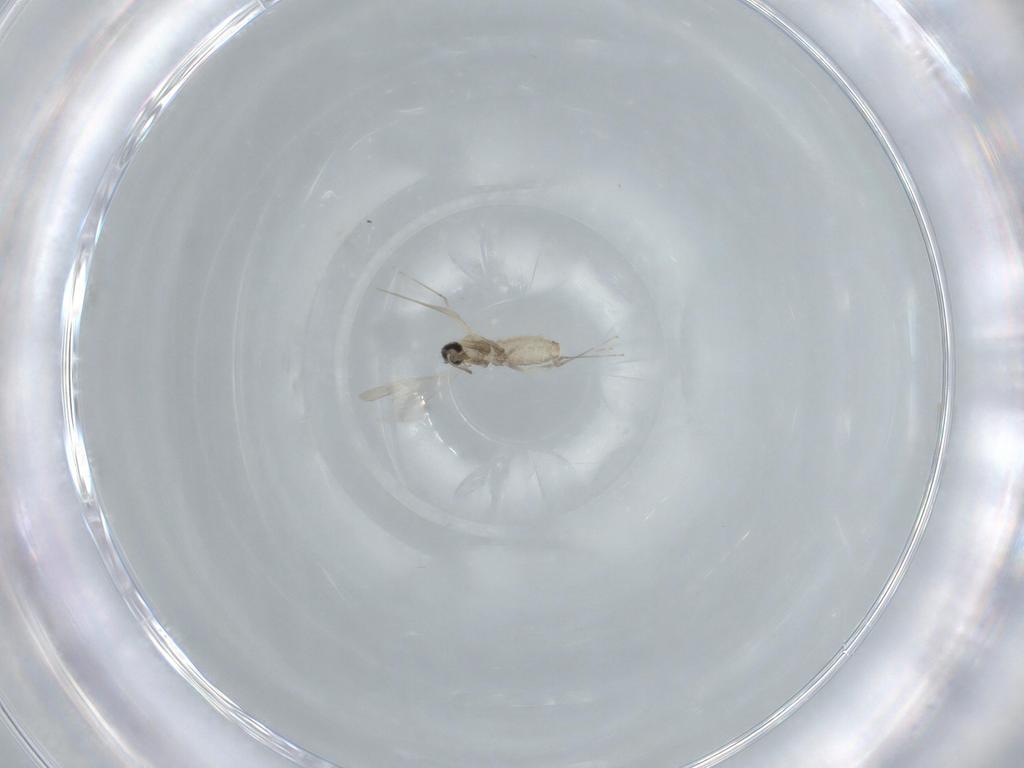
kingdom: Animalia
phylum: Arthropoda
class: Insecta
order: Diptera
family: Cecidomyiidae
